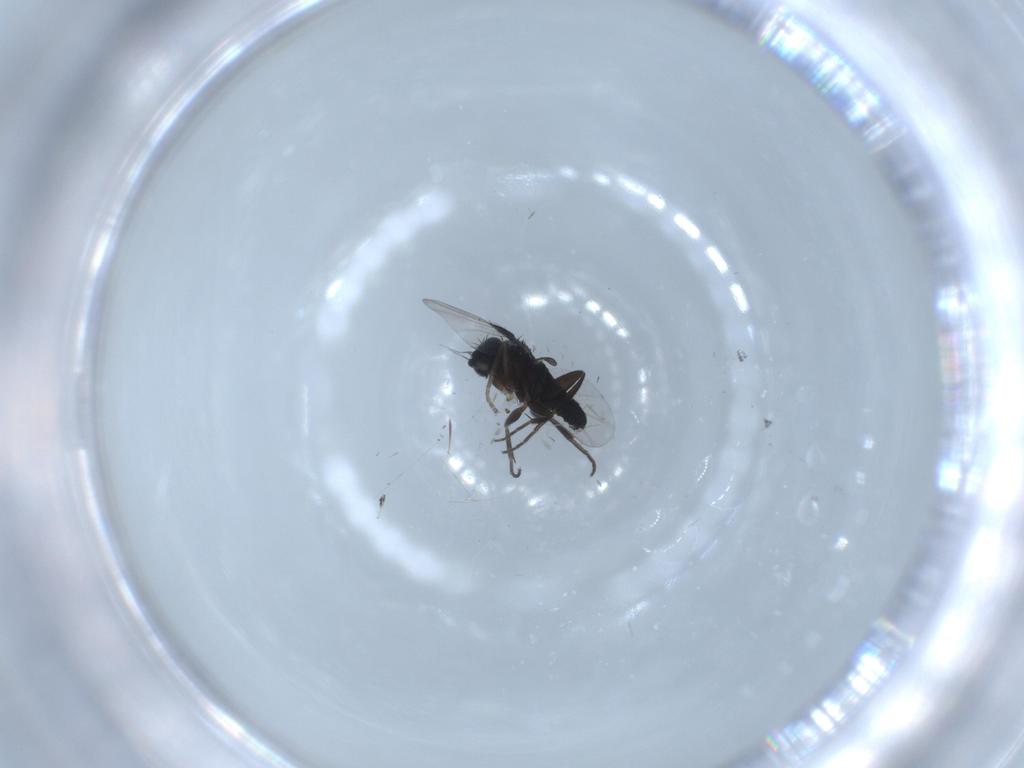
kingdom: Animalia
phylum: Arthropoda
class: Insecta
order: Diptera
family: Phoridae
